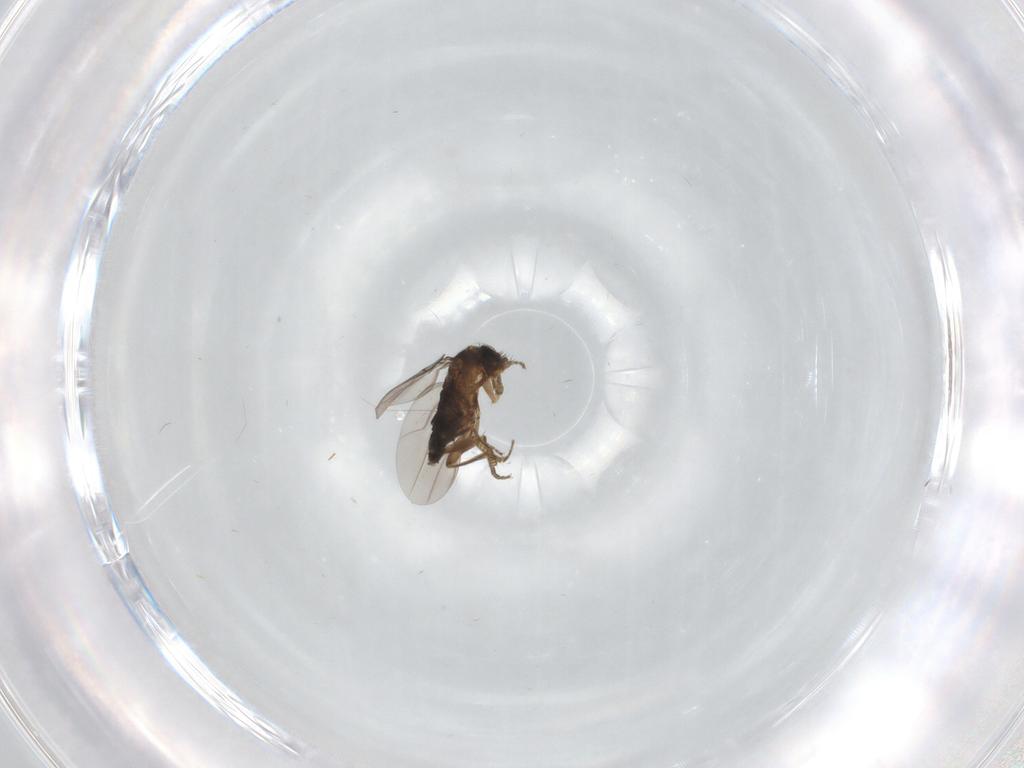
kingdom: Animalia
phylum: Arthropoda
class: Insecta
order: Diptera
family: Phoridae
